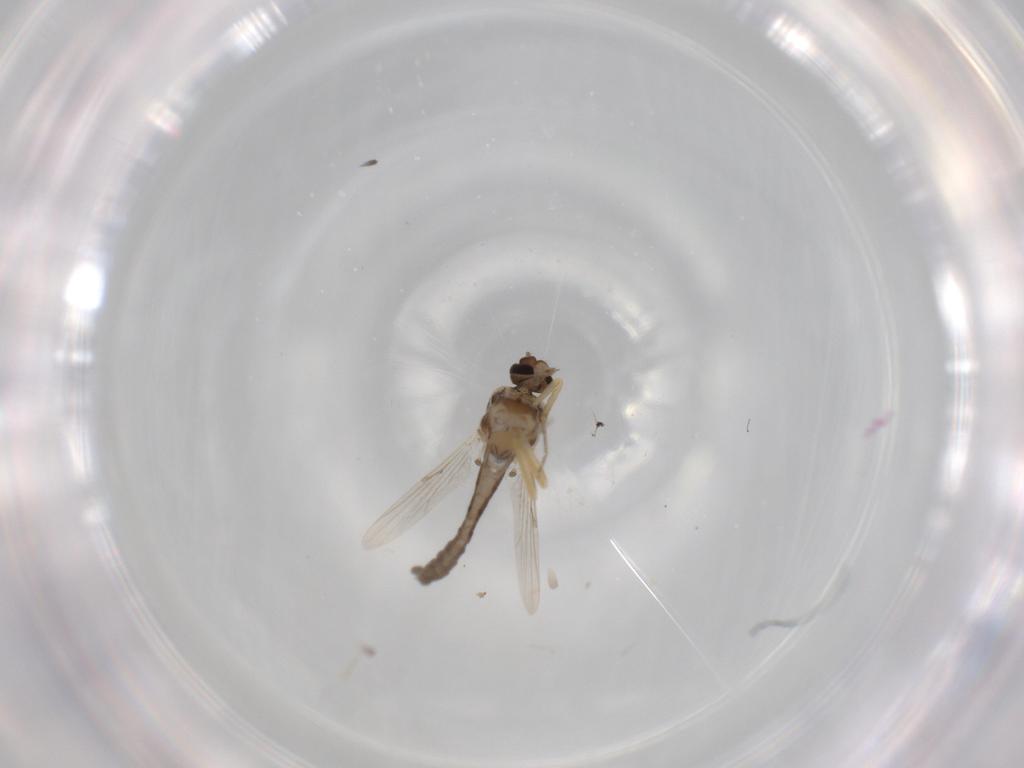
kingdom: Animalia
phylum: Arthropoda
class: Insecta
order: Diptera
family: Ceratopogonidae
